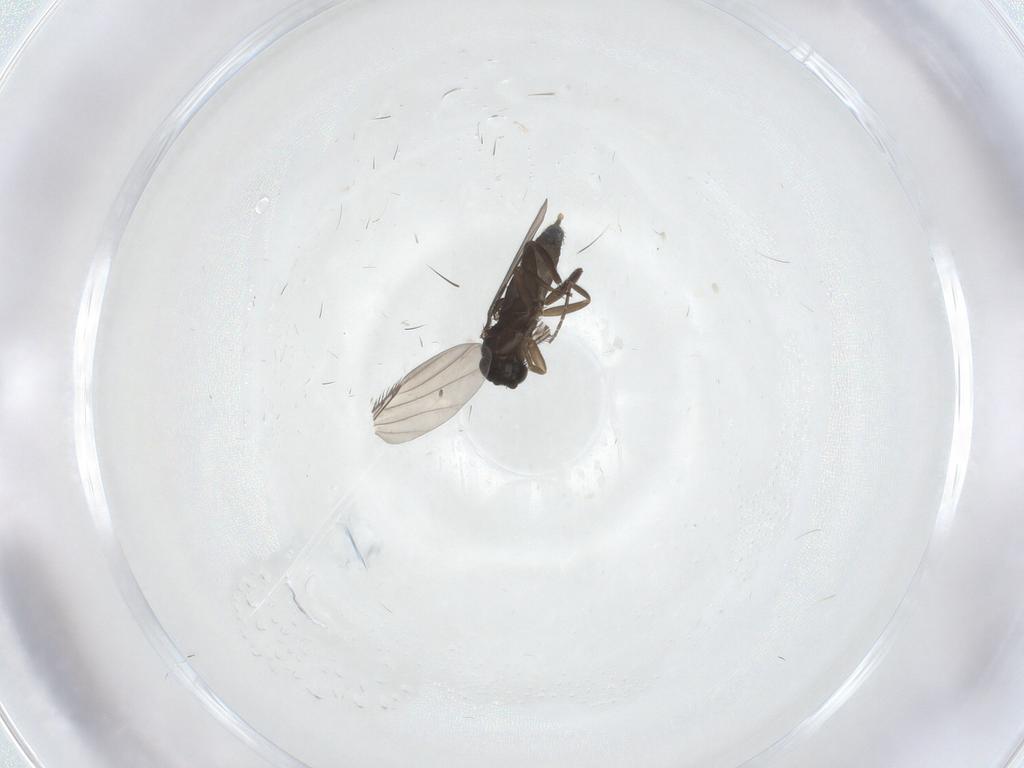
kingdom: Animalia
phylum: Arthropoda
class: Insecta
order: Diptera
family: Phoridae
